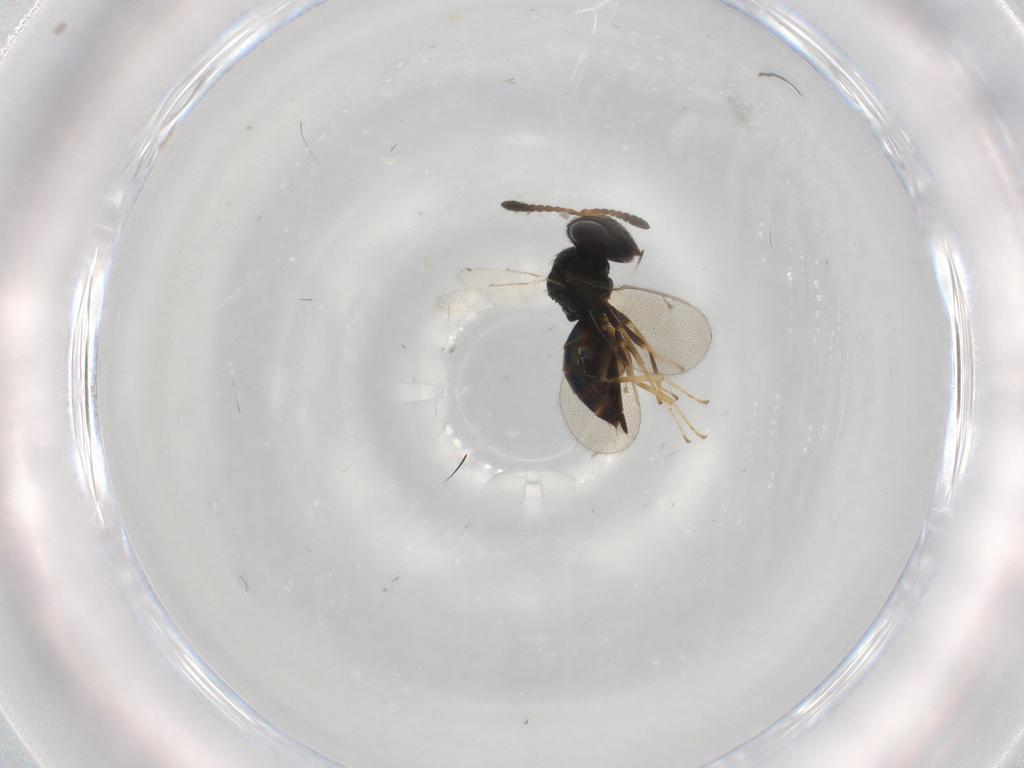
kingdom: Animalia
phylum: Arthropoda
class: Insecta
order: Hymenoptera
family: Pteromalidae
